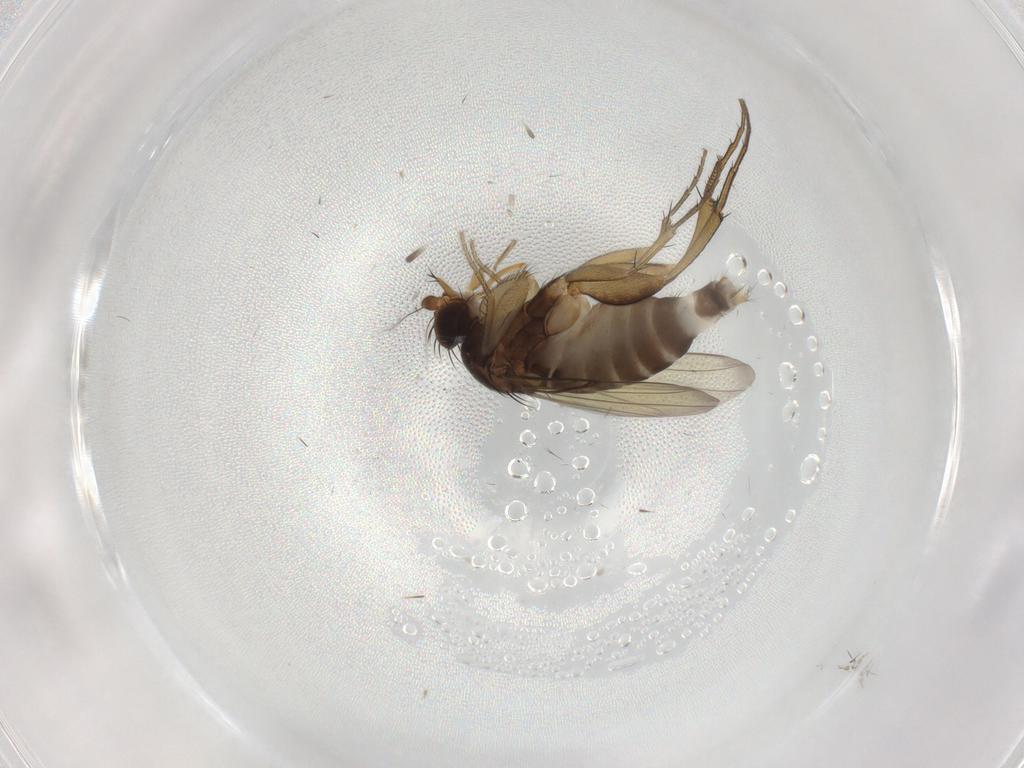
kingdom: Animalia
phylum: Arthropoda
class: Insecta
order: Diptera
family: Phoridae
